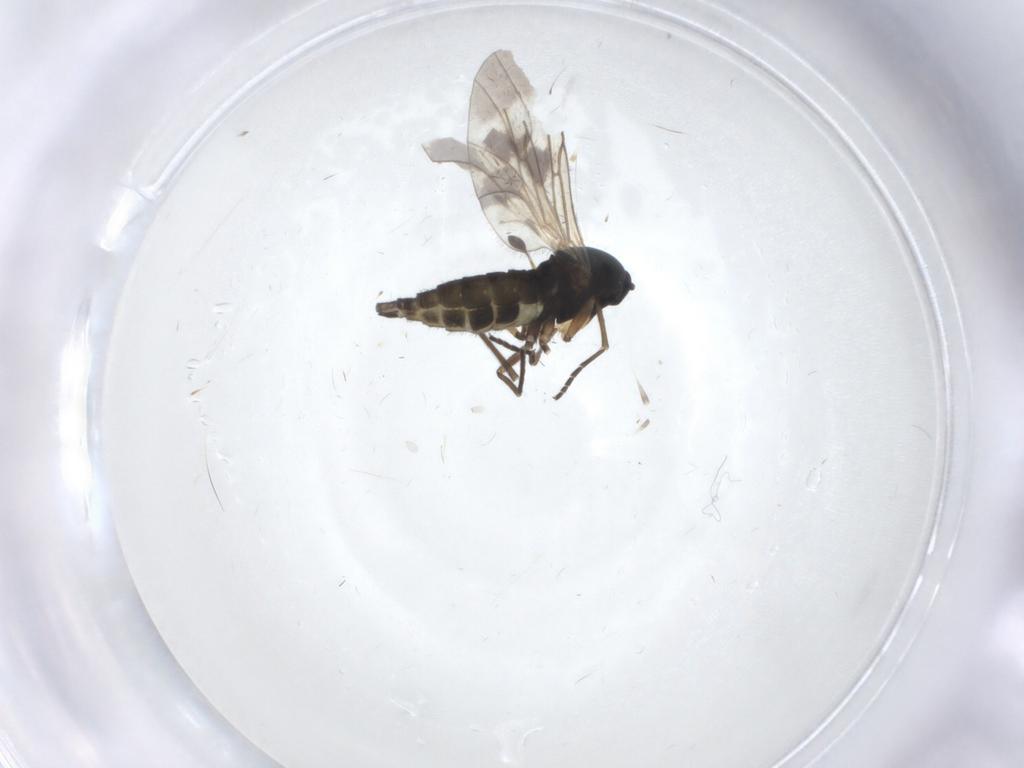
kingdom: Animalia
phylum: Arthropoda
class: Insecta
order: Diptera
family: Sciaridae
